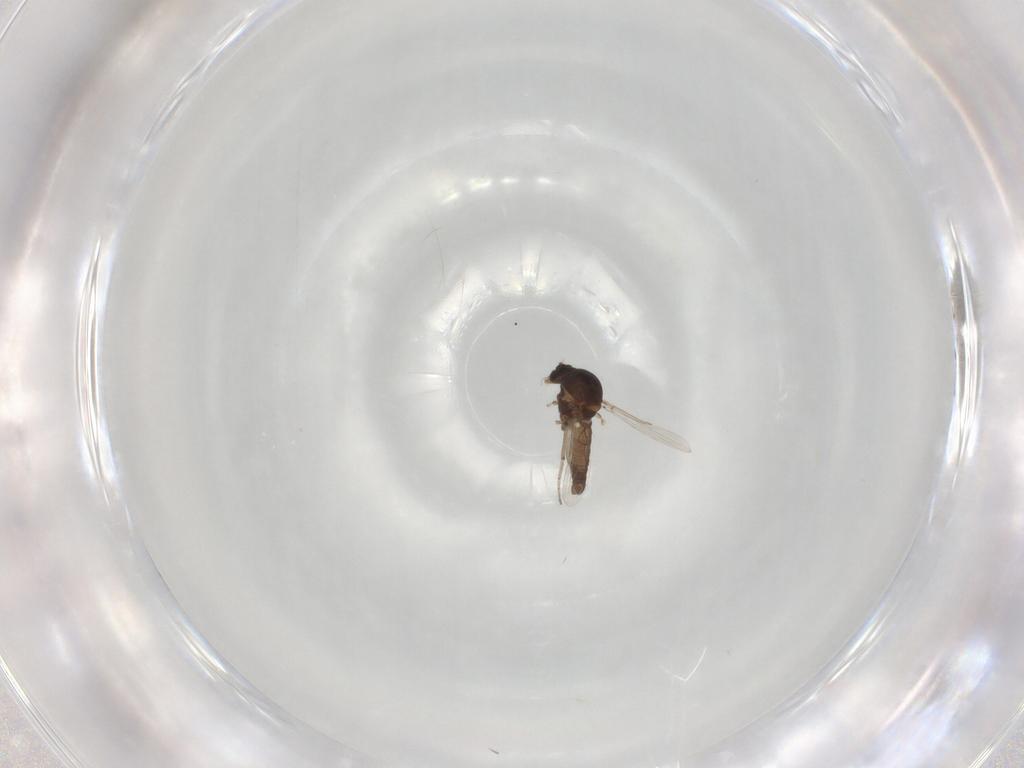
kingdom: Animalia
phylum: Arthropoda
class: Insecta
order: Diptera
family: Ceratopogonidae
